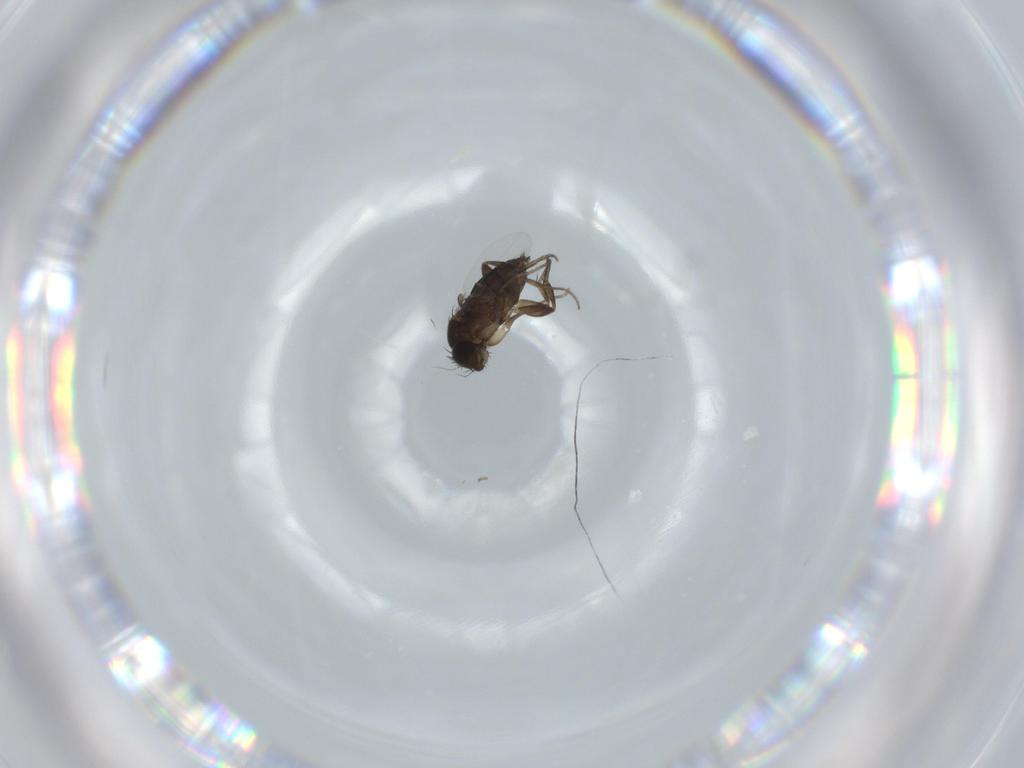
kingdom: Animalia
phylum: Arthropoda
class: Insecta
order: Diptera
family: Phoridae
